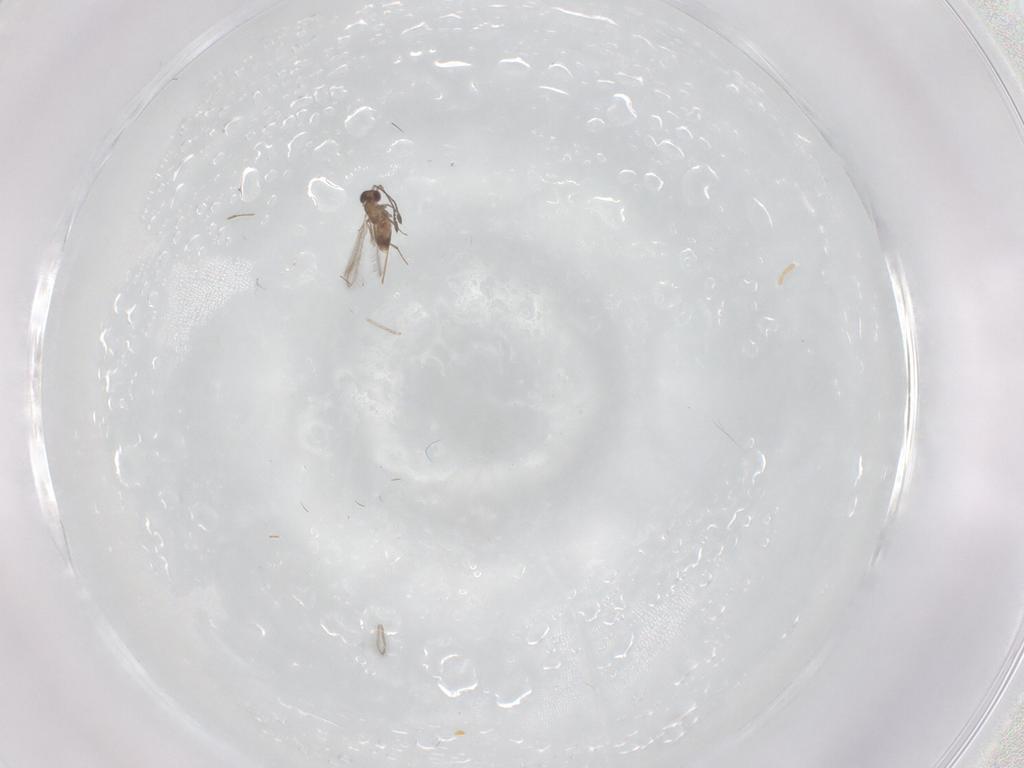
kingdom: Animalia
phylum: Arthropoda
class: Insecta
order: Hymenoptera
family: Mymaridae
